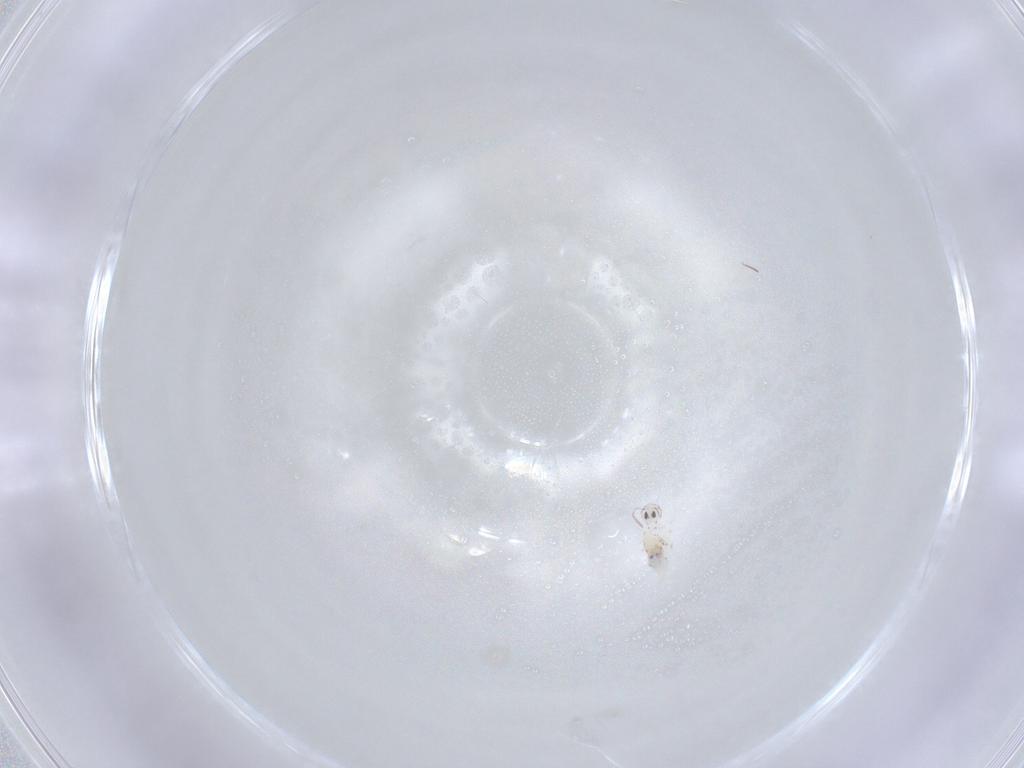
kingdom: Animalia
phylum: Arthropoda
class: Collembola
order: Symphypleona
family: Bourletiellidae
